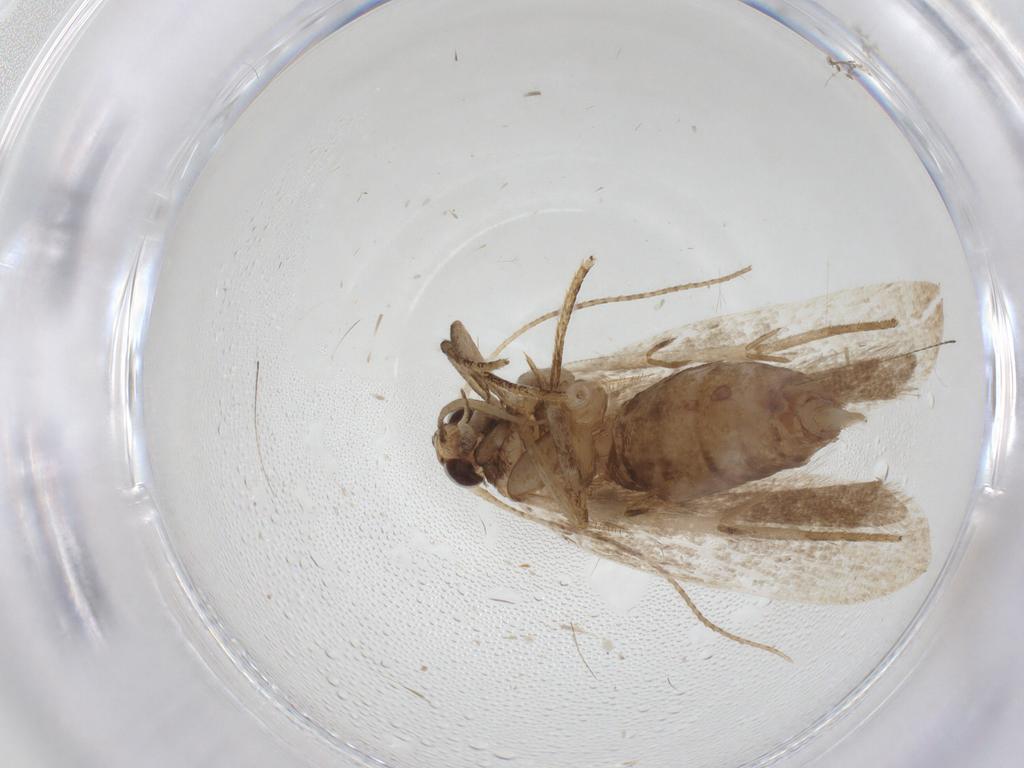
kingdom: Animalia
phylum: Arthropoda
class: Insecta
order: Lepidoptera
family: Tineidae
